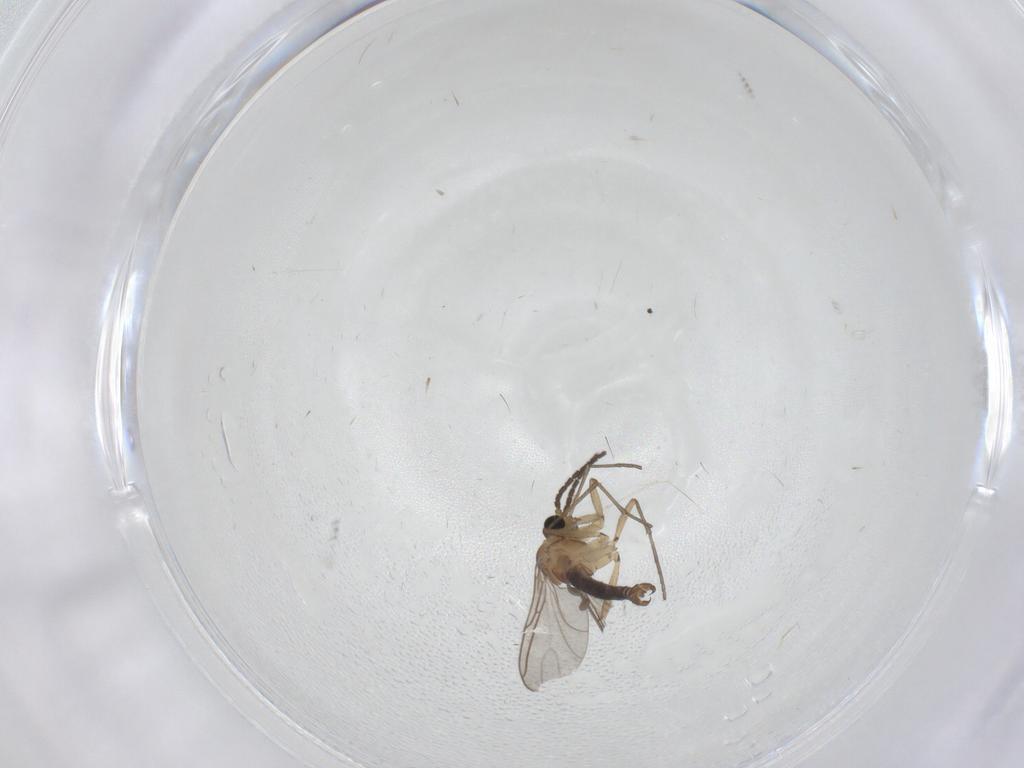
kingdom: Animalia
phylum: Arthropoda
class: Insecta
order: Diptera
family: Sciaridae
